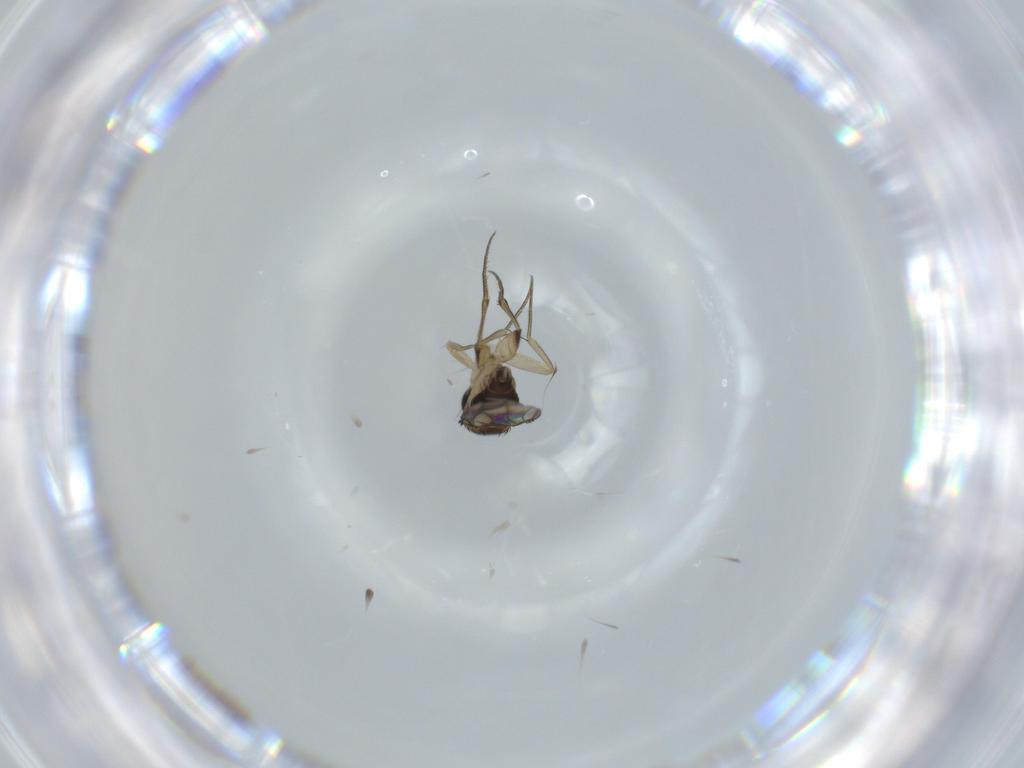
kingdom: Animalia
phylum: Arthropoda
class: Insecta
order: Diptera
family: Phoridae
